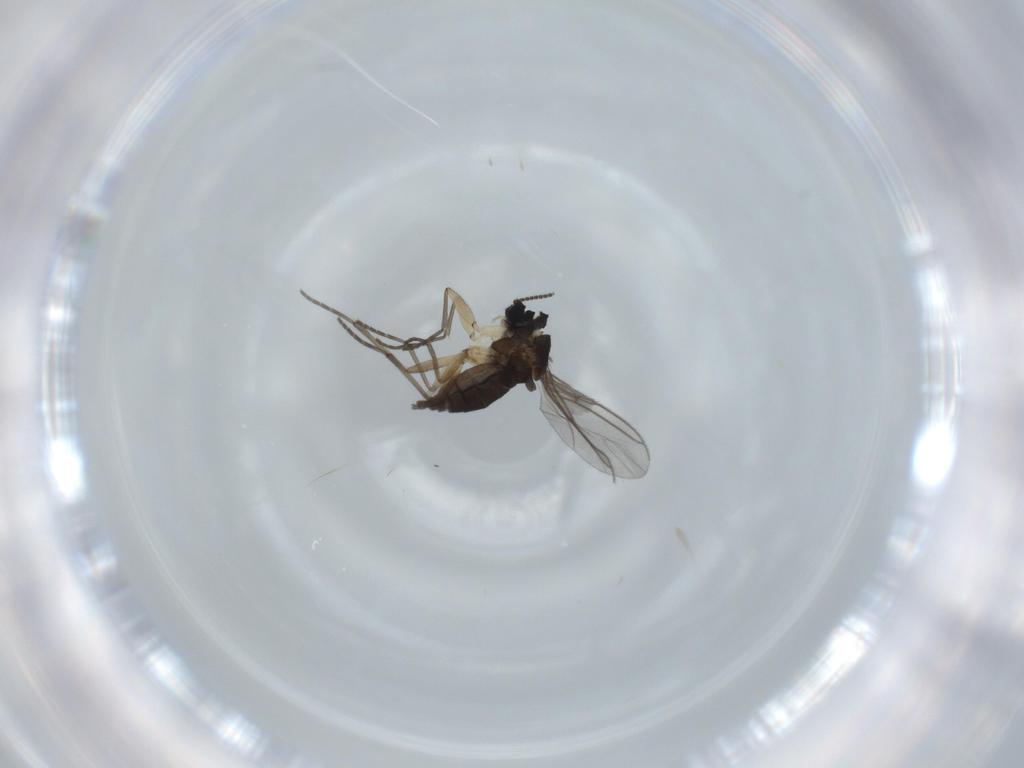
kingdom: Animalia
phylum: Arthropoda
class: Insecta
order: Diptera
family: Sciaridae
